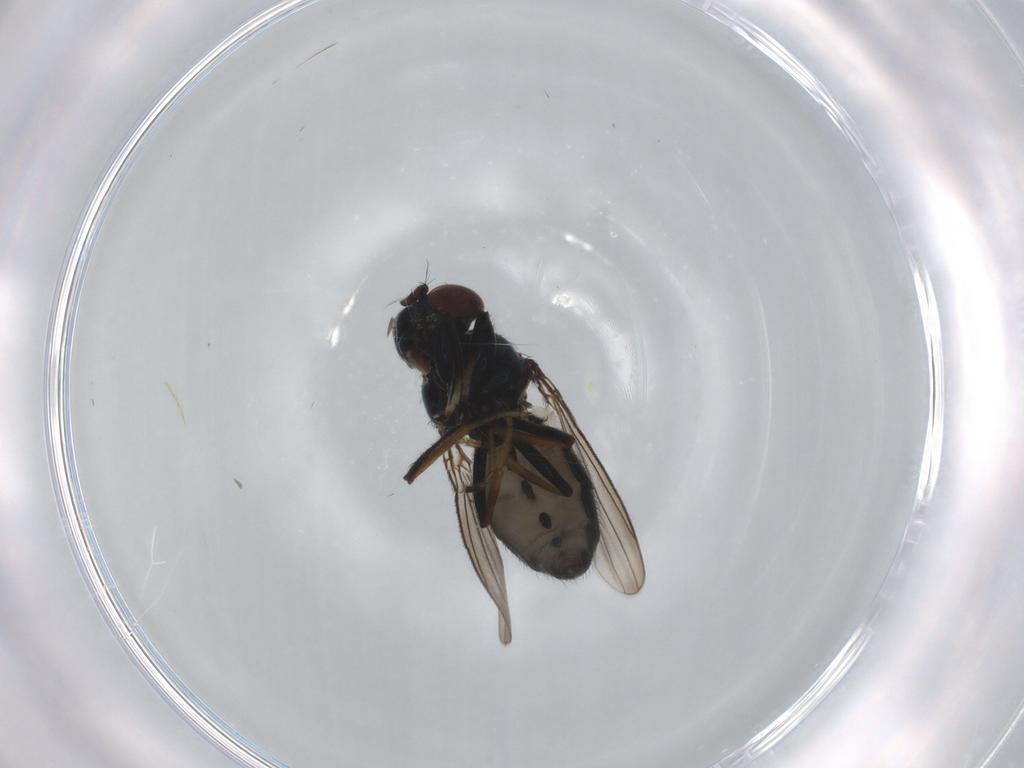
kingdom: Animalia
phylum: Arthropoda
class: Insecta
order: Diptera
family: Ephydridae
